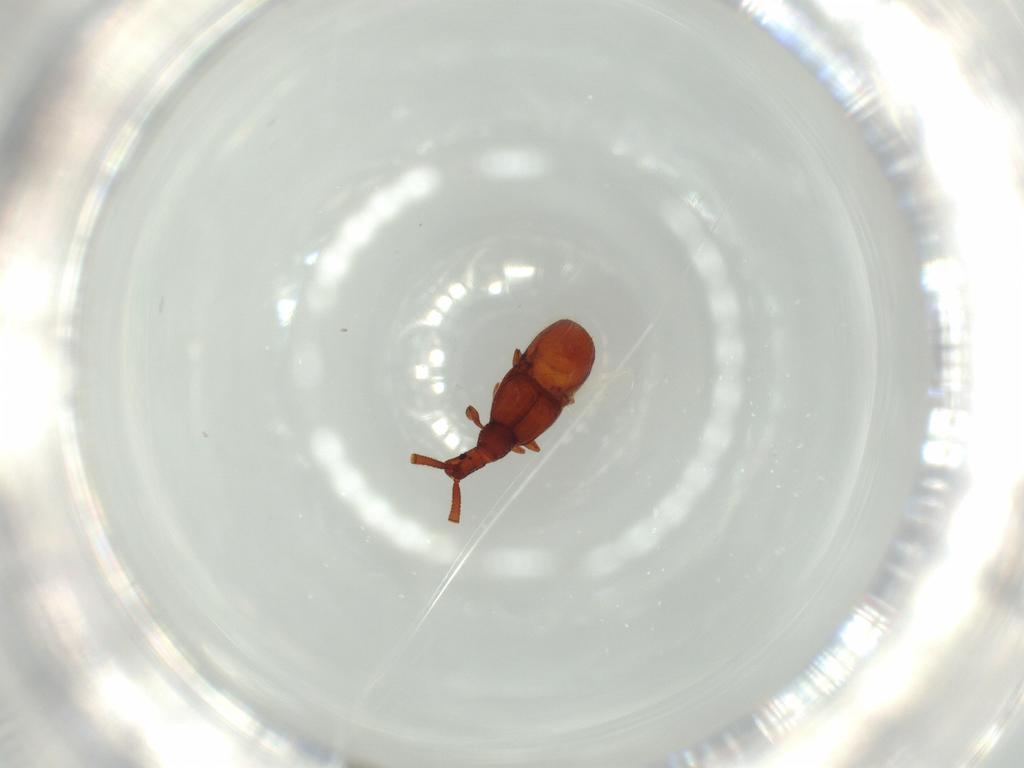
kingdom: Animalia
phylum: Arthropoda
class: Insecta
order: Coleoptera
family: Staphylinidae
